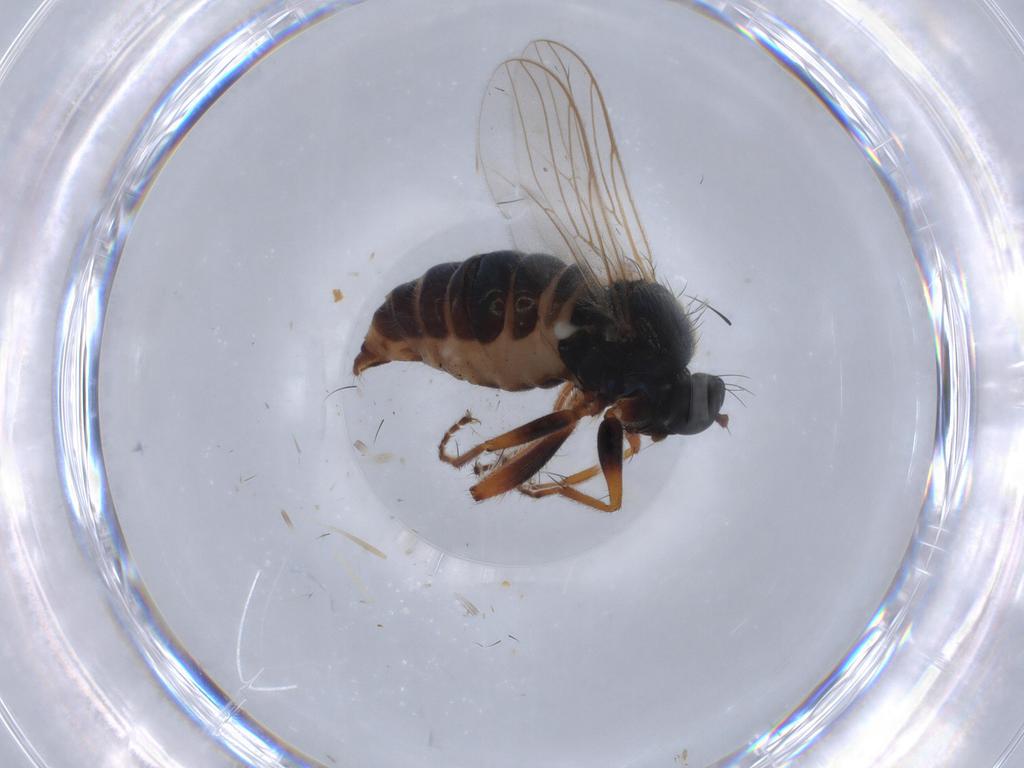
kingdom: Animalia
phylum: Arthropoda
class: Insecta
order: Diptera
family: Hybotidae
